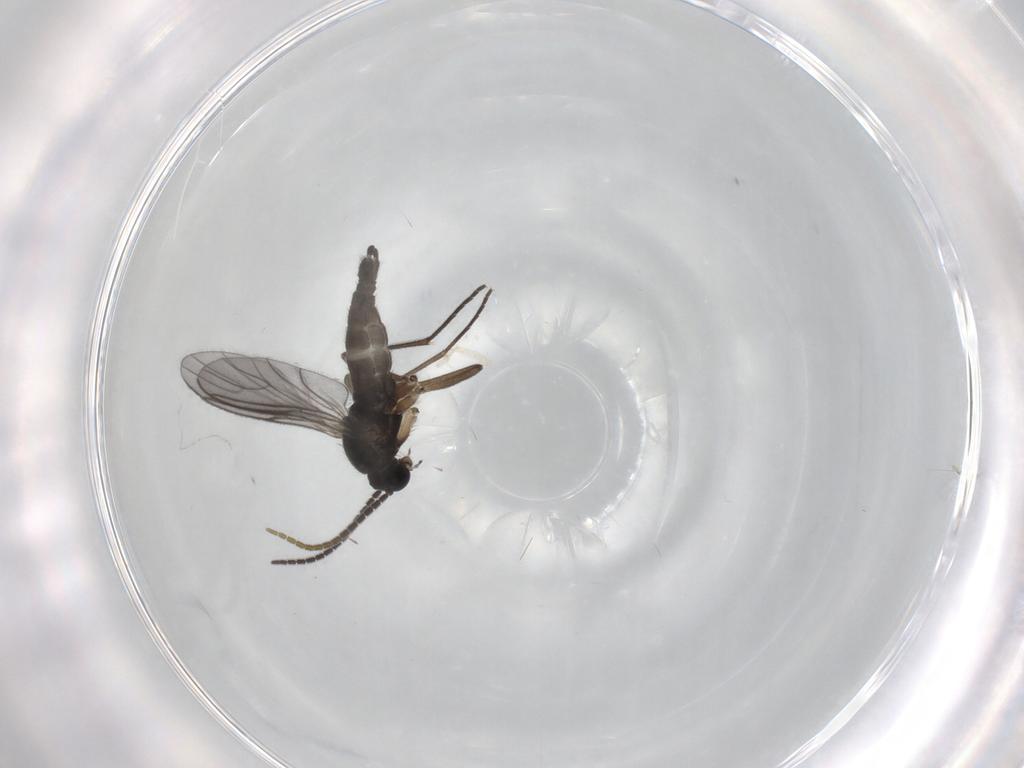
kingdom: Animalia
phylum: Arthropoda
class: Insecta
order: Diptera
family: Sciaridae
